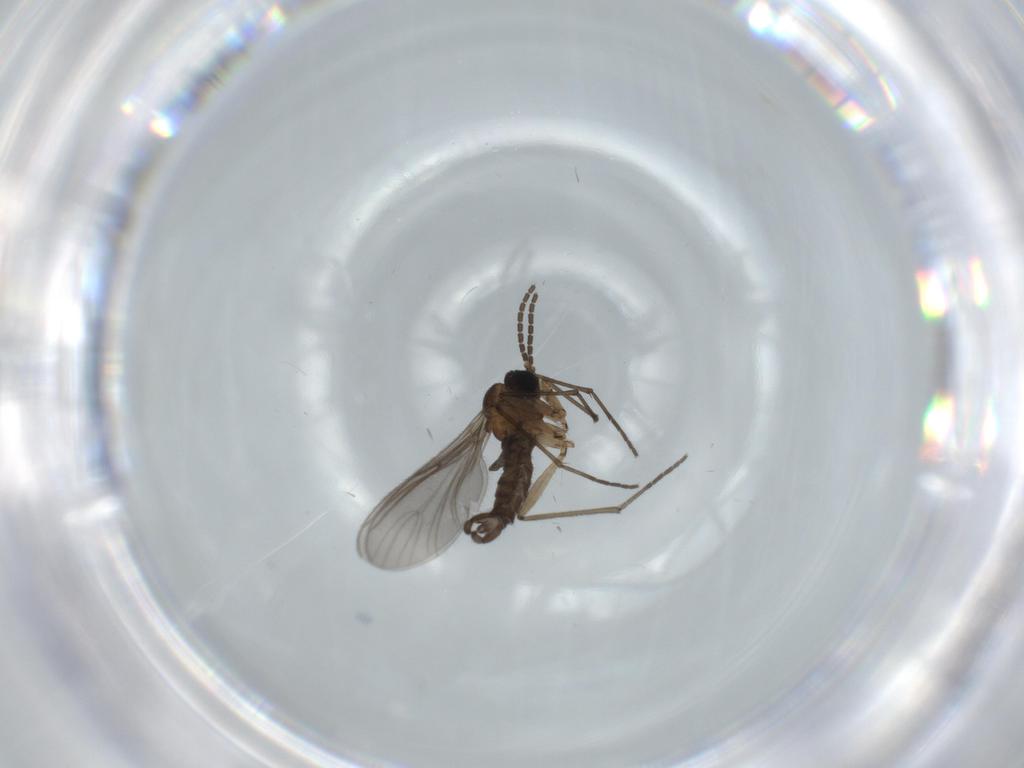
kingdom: Animalia
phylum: Arthropoda
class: Insecta
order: Diptera
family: Sciaridae
